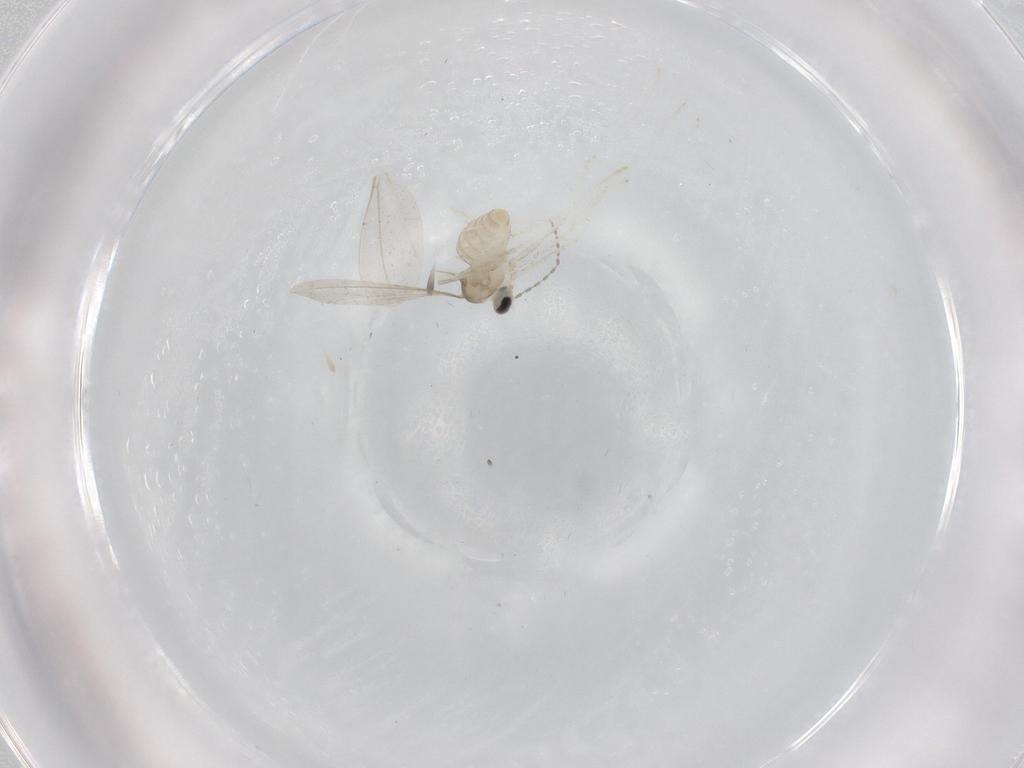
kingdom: Animalia
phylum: Arthropoda
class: Insecta
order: Diptera
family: Cecidomyiidae
